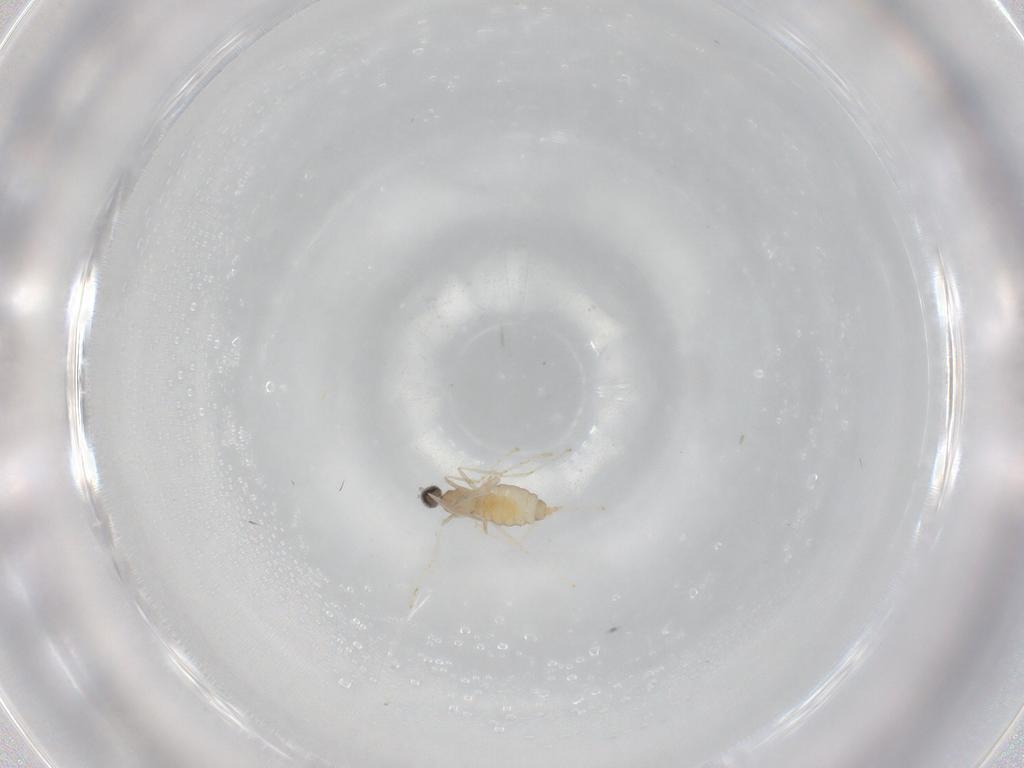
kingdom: Animalia
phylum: Arthropoda
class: Insecta
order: Diptera
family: Cecidomyiidae
